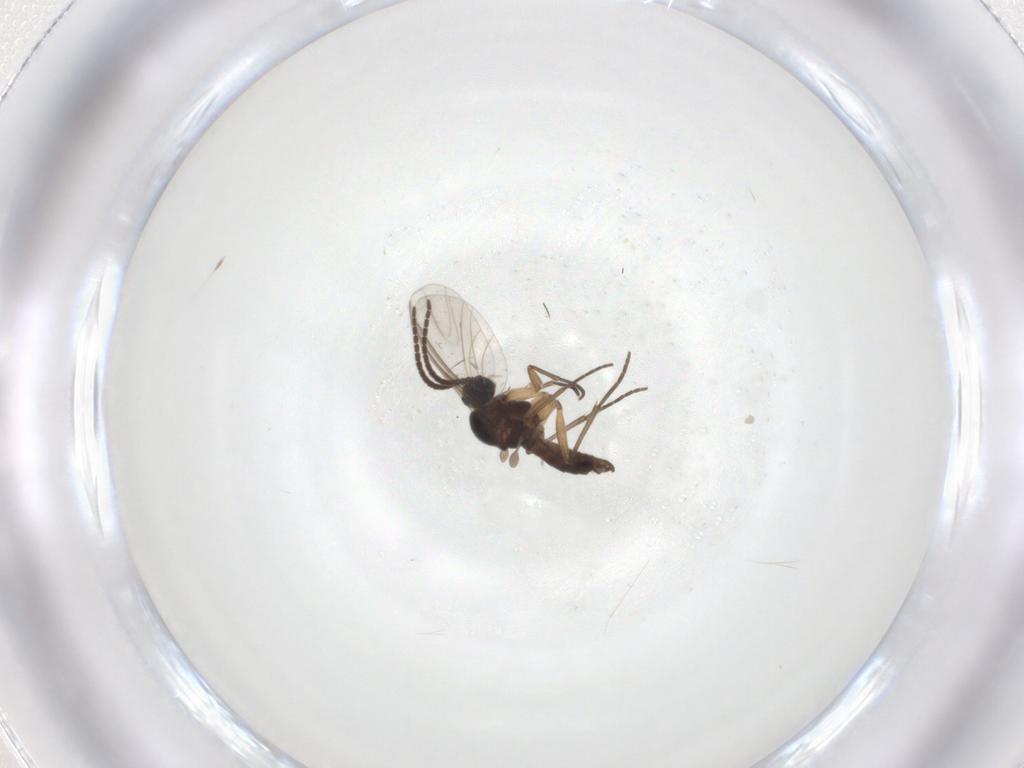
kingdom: Animalia
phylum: Arthropoda
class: Insecta
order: Diptera
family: Sciaridae
